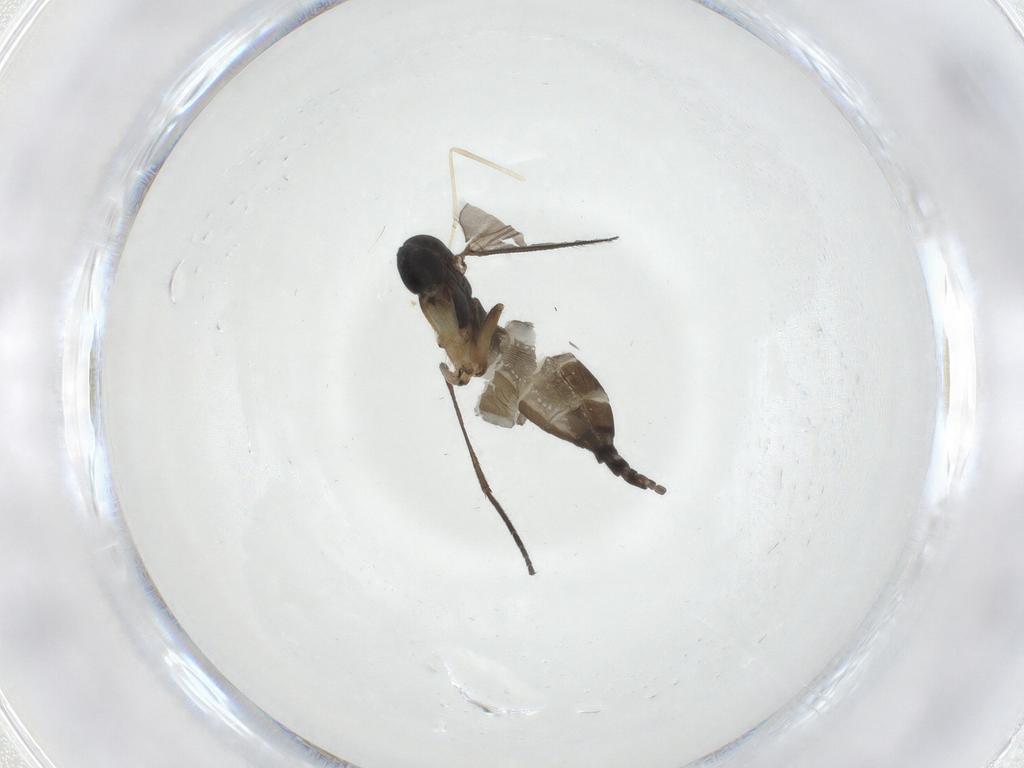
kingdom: Animalia
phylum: Arthropoda
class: Insecta
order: Diptera
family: Sciaridae
